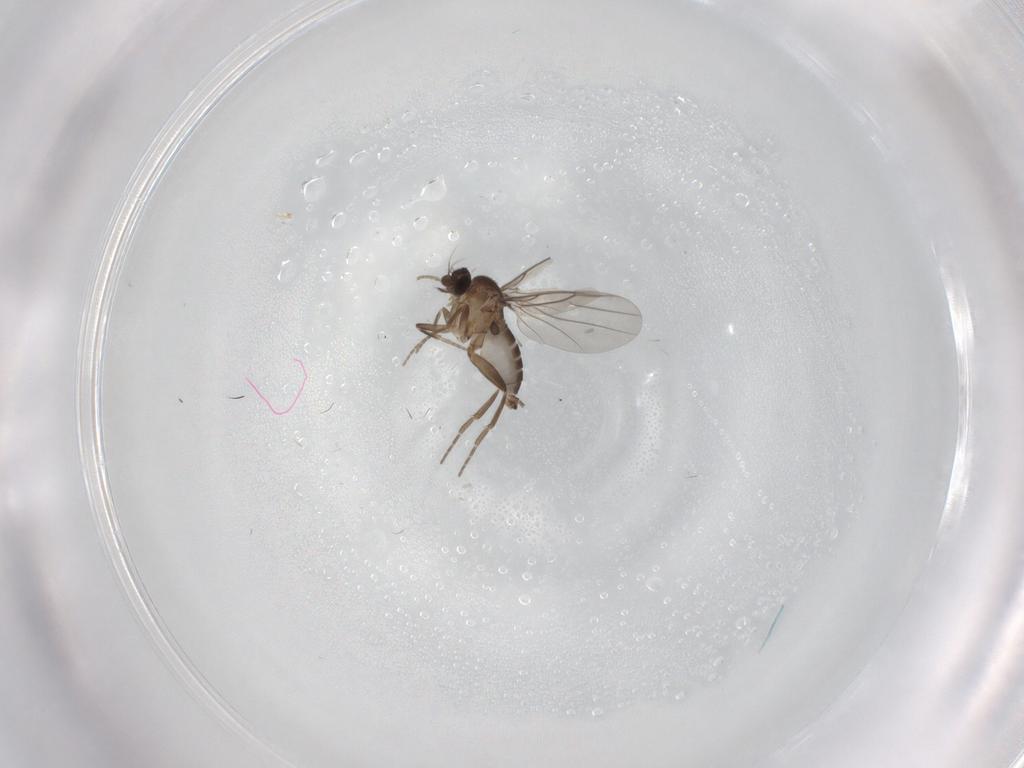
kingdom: Animalia
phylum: Arthropoda
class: Insecta
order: Diptera
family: Phoridae
